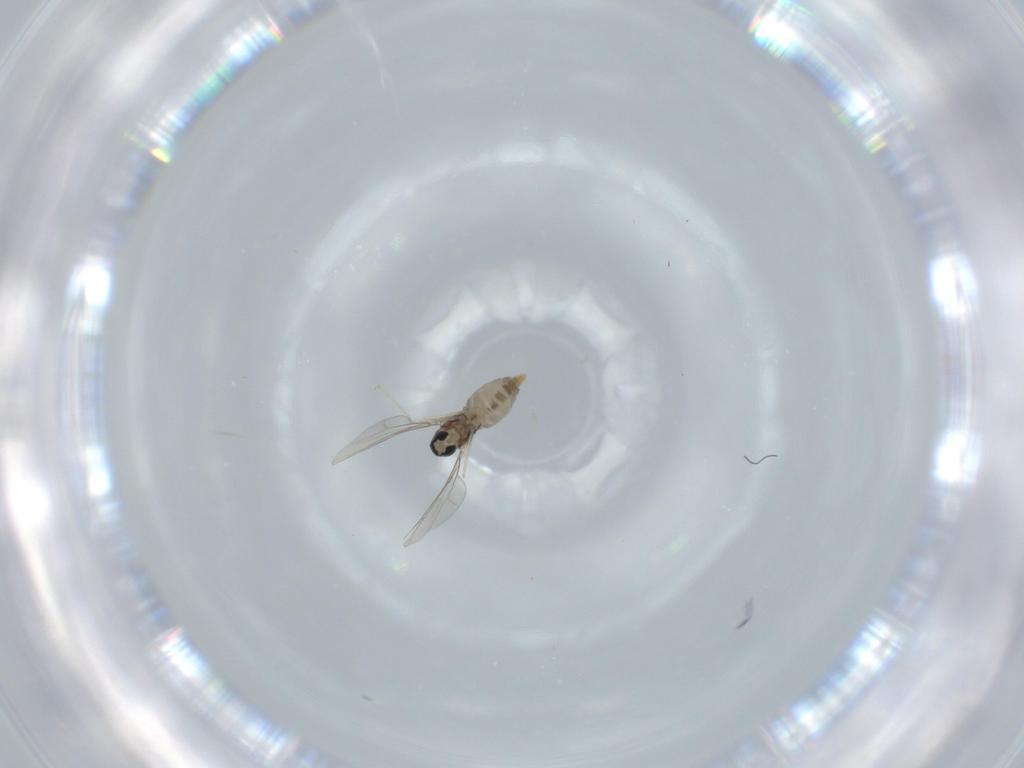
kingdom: Animalia
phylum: Arthropoda
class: Insecta
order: Diptera
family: Cecidomyiidae
